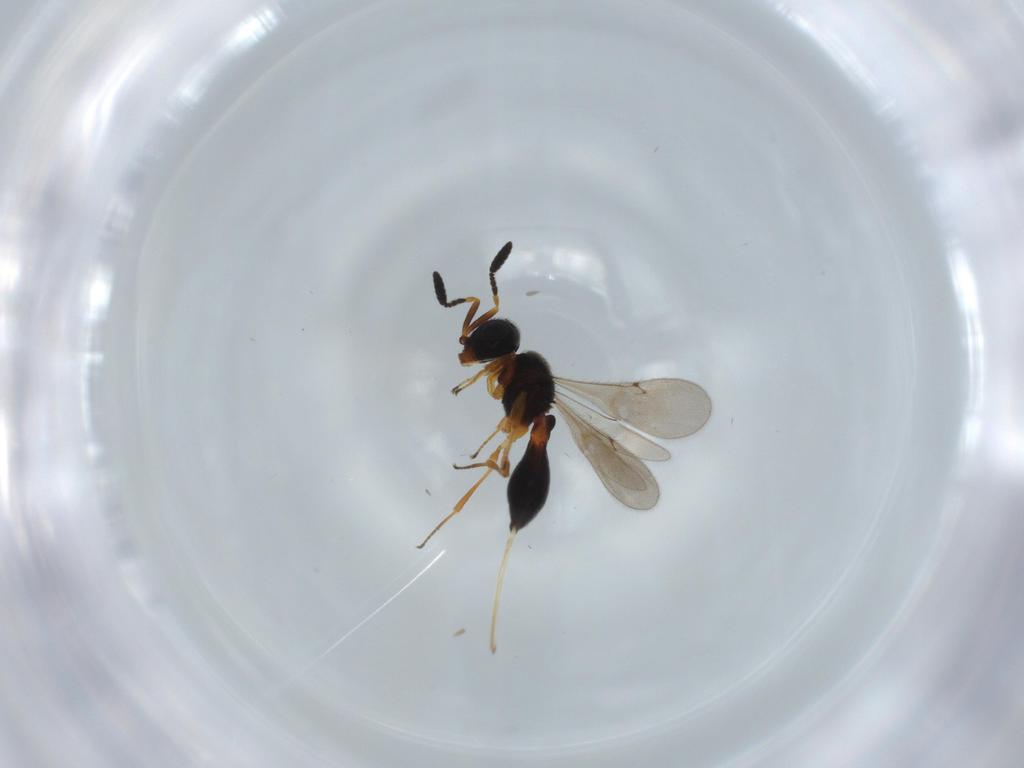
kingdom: Animalia
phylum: Arthropoda
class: Insecta
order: Hymenoptera
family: Scelionidae
